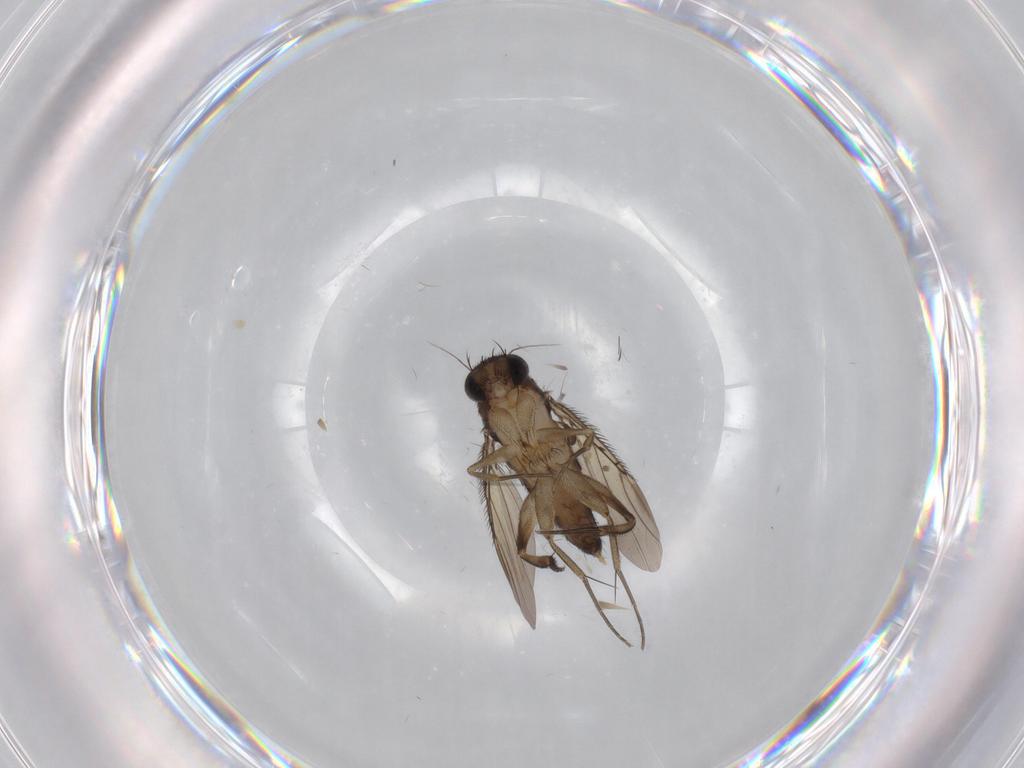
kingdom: Animalia
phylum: Arthropoda
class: Insecta
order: Diptera
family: Phoridae
